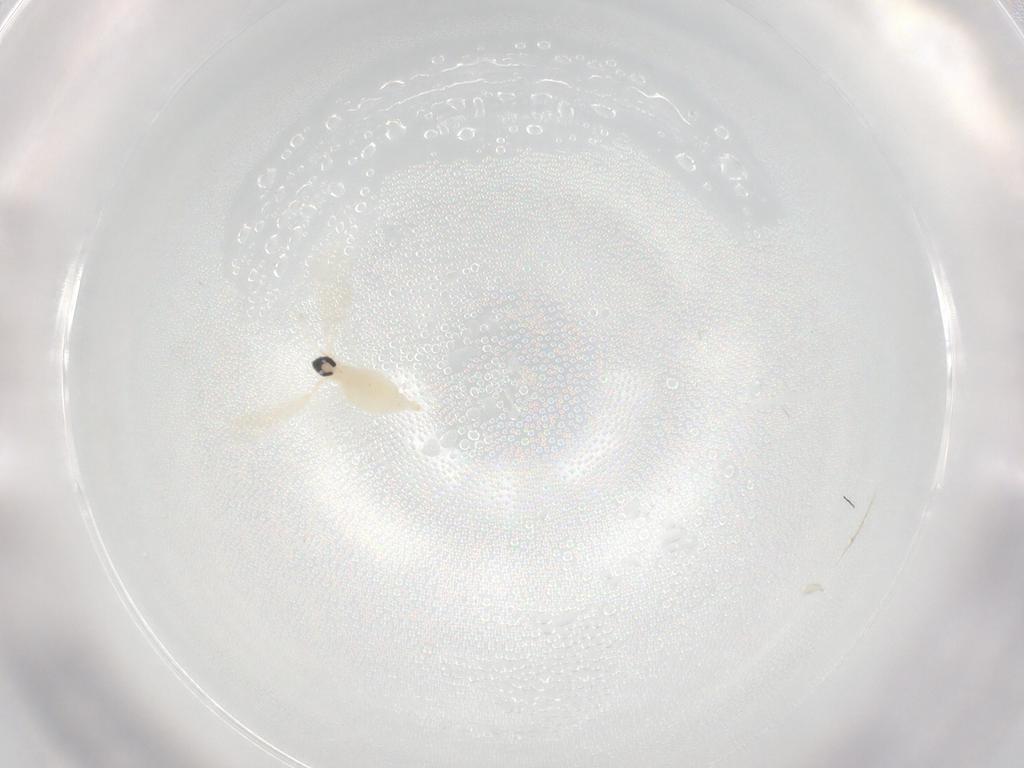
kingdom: Animalia
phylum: Arthropoda
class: Insecta
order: Diptera
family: Cecidomyiidae
